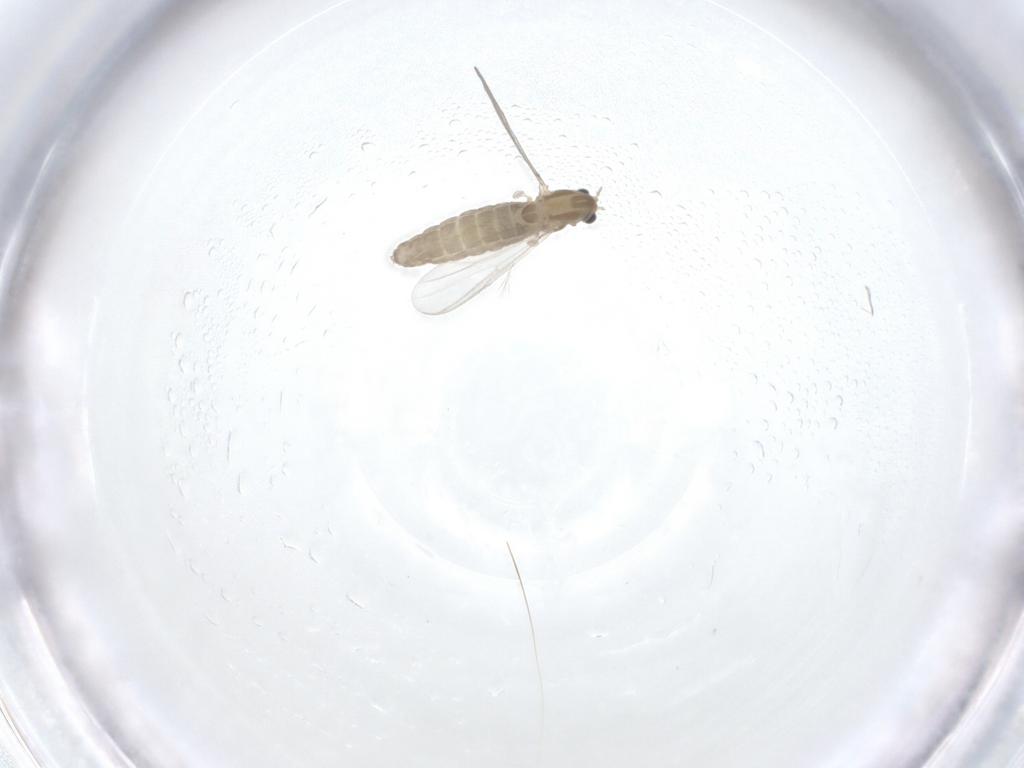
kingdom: Animalia
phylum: Arthropoda
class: Insecta
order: Diptera
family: Chironomidae
